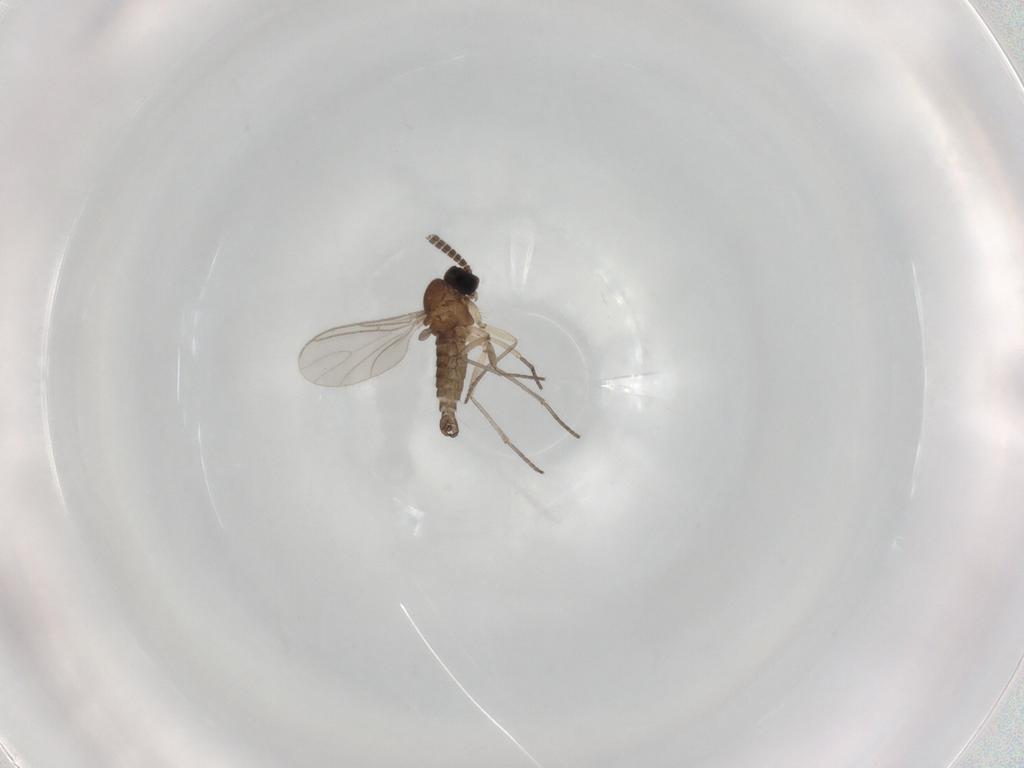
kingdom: Animalia
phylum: Arthropoda
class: Insecta
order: Diptera
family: Sciaridae
